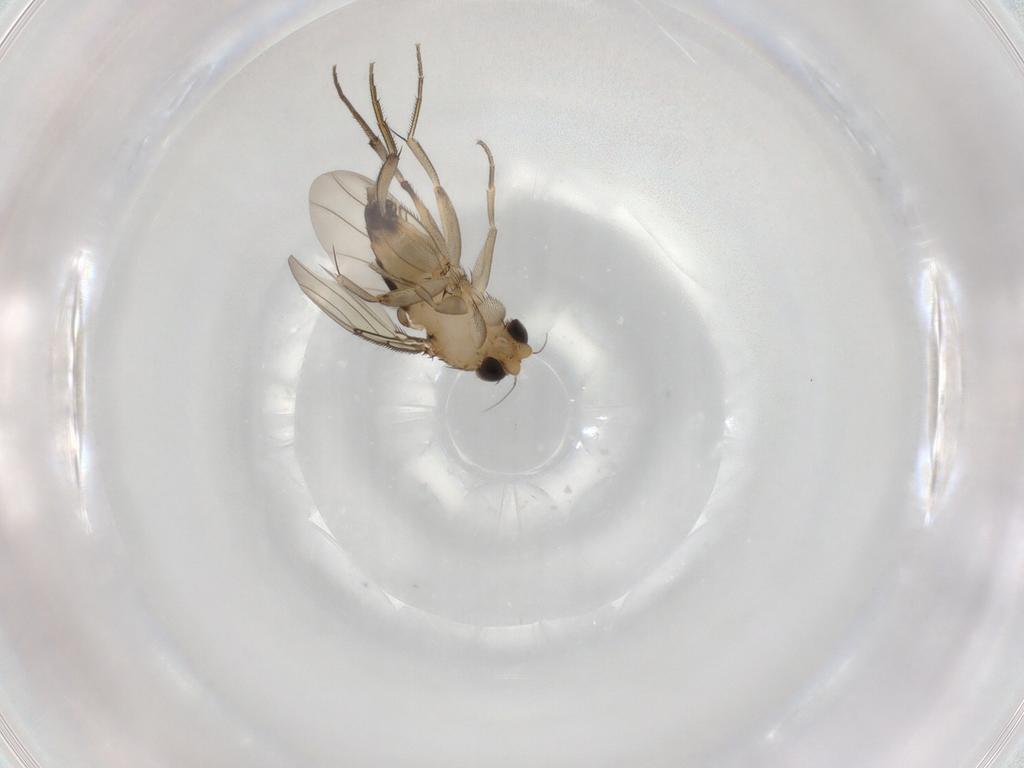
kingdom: Animalia
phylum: Arthropoda
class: Insecta
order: Diptera
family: Phoridae
